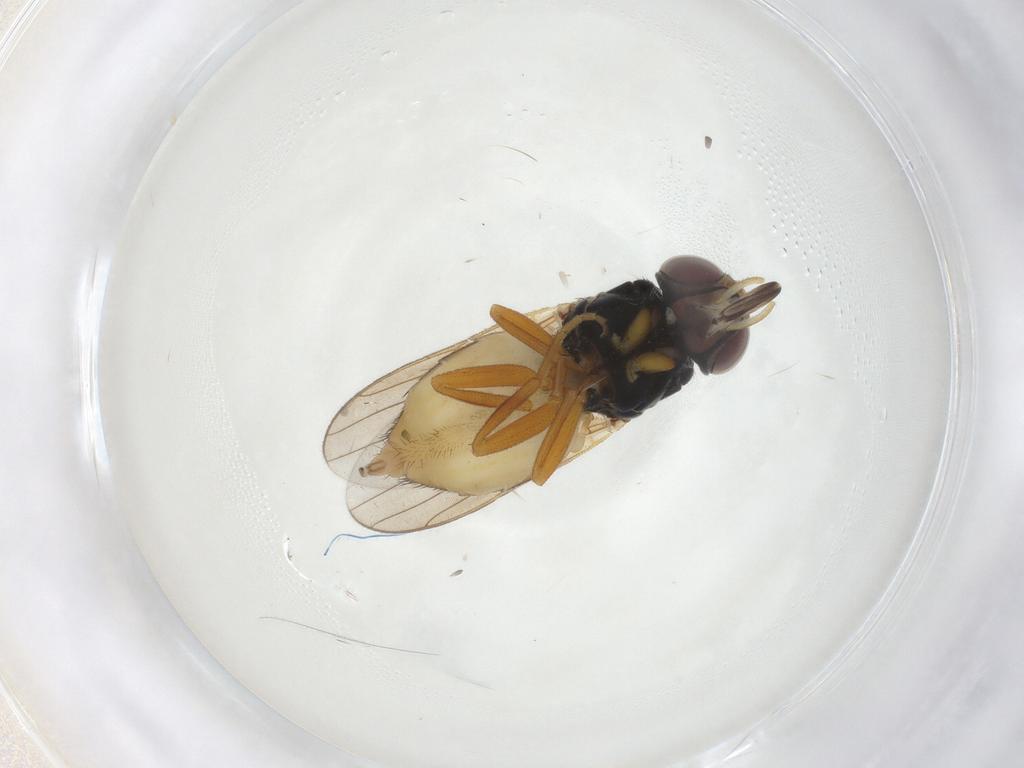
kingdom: Animalia
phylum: Arthropoda
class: Insecta
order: Diptera
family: Chloropidae
